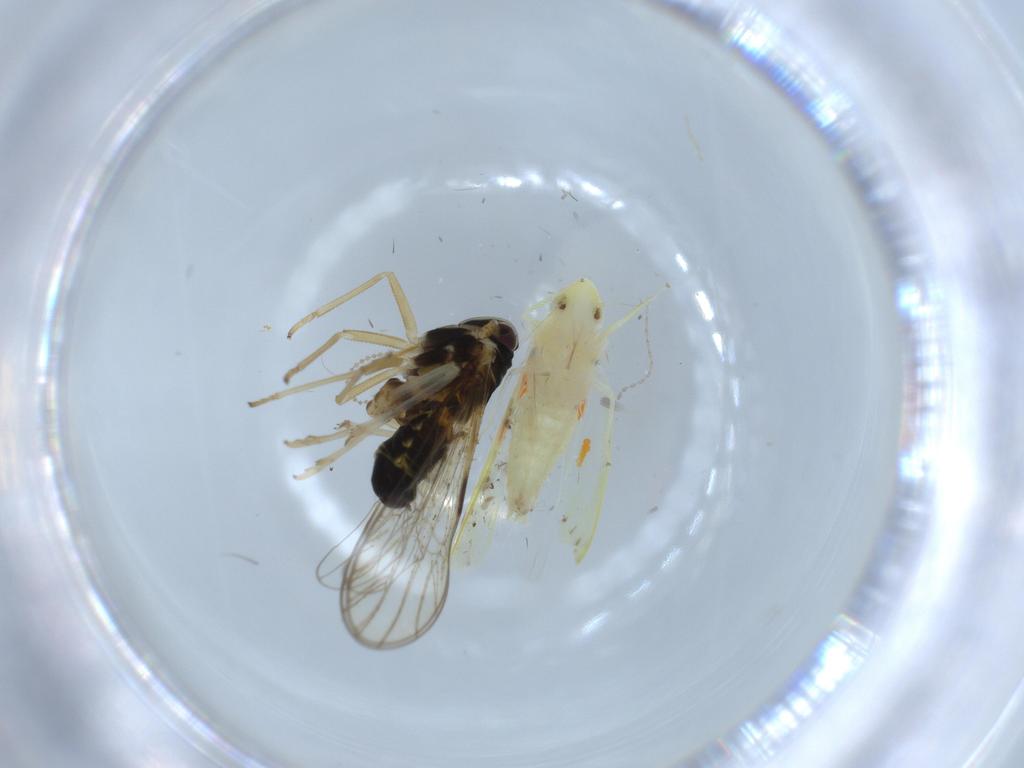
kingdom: Animalia
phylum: Arthropoda
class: Insecta
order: Hemiptera
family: Cicadellidae
